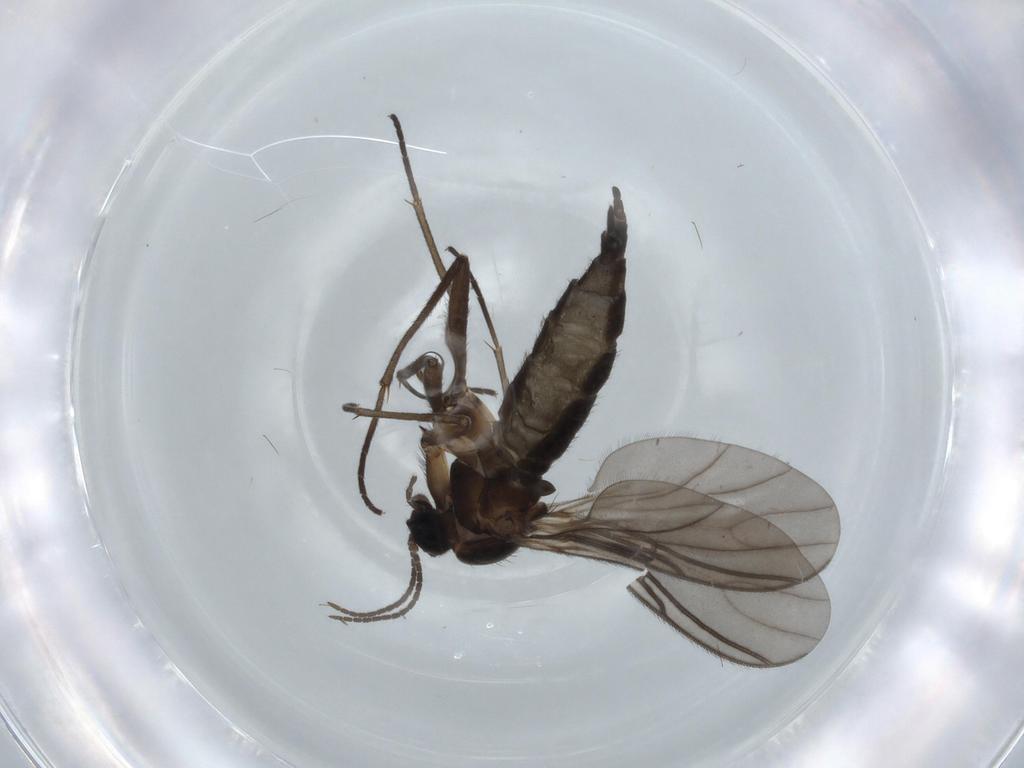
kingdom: Animalia
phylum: Arthropoda
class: Insecta
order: Diptera
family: Sciaridae
